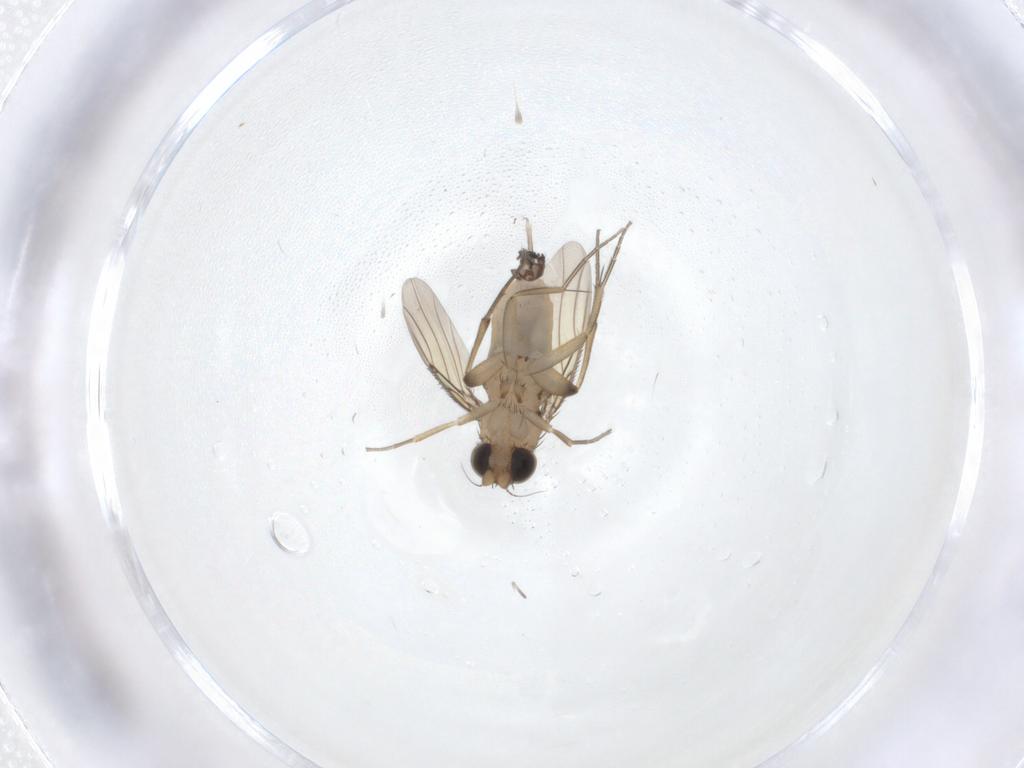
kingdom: Animalia
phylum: Arthropoda
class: Insecta
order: Diptera
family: Phoridae
